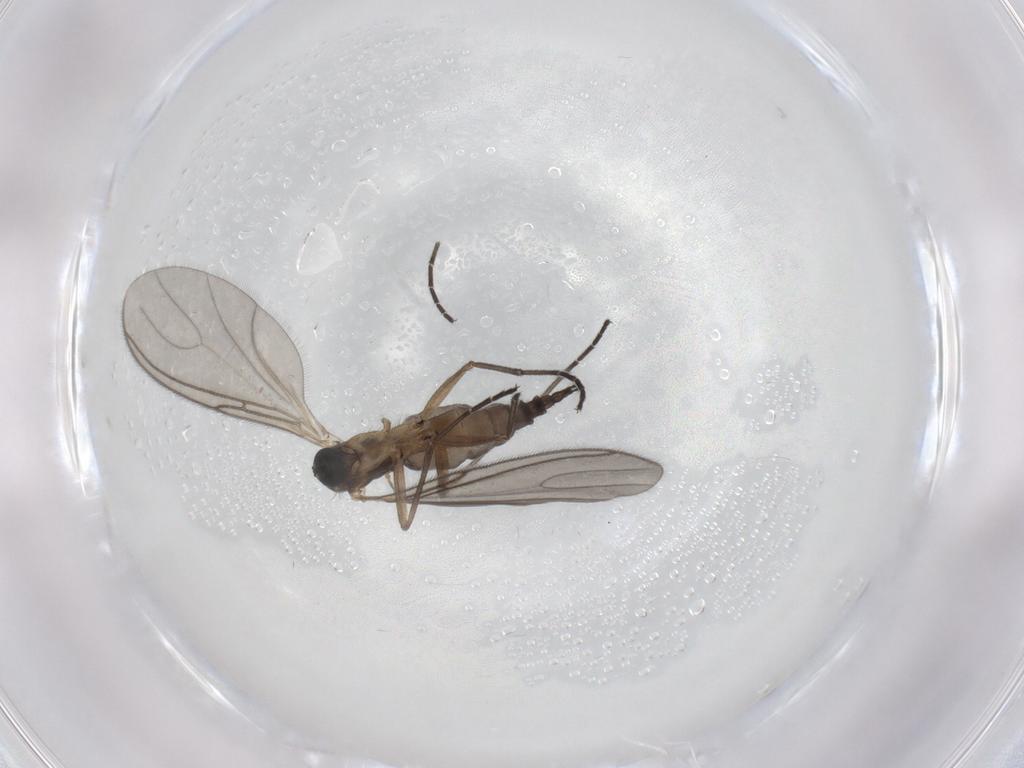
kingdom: Animalia
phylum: Arthropoda
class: Insecta
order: Diptera
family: Sciaridae
